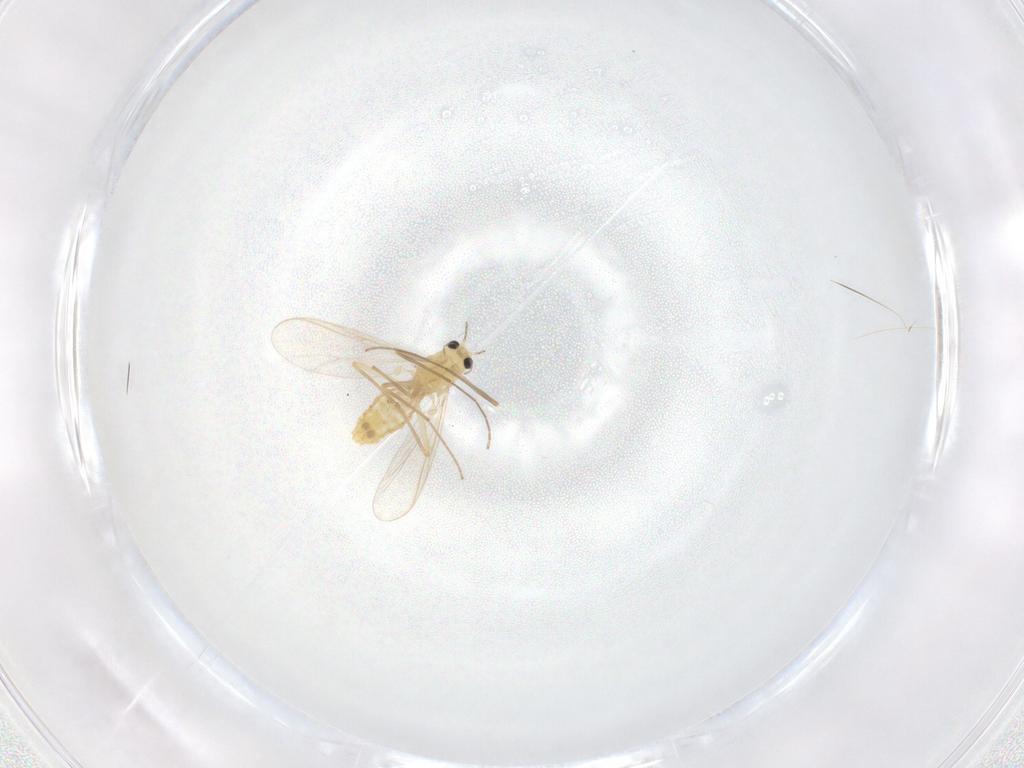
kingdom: Animalia
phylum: Arthropoda
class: Insecta
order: Diptera
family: Chironomidae
